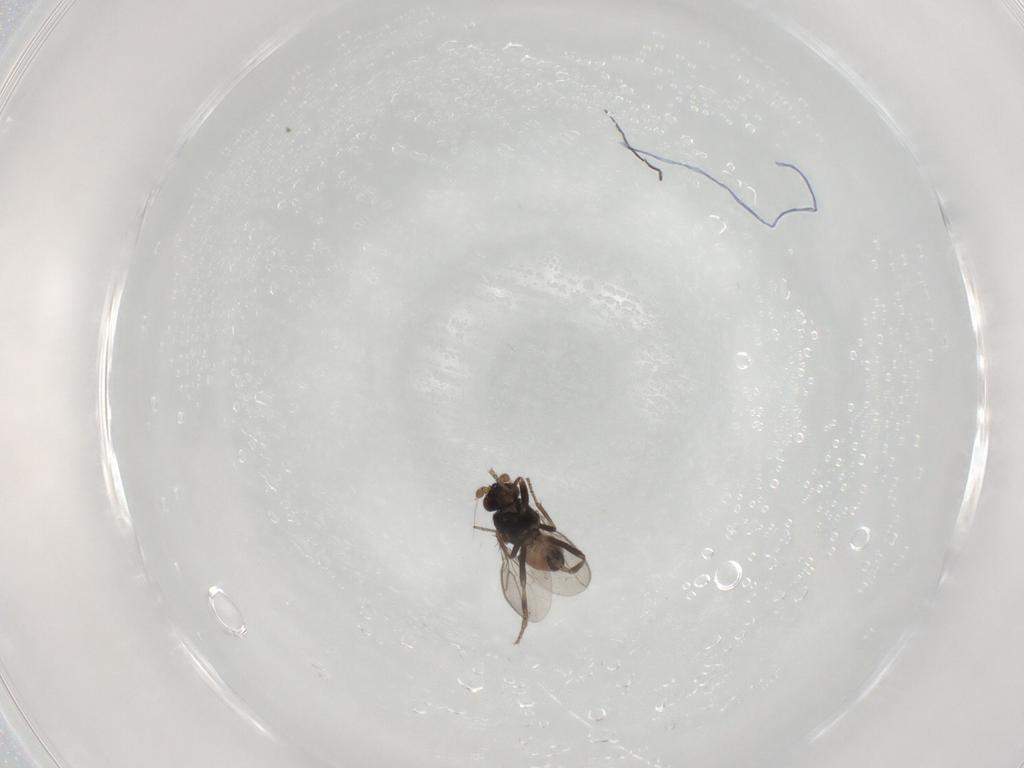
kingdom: Animalia
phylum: Arthropoda
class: Insecta
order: Diptera
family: Sphaeroceridae
